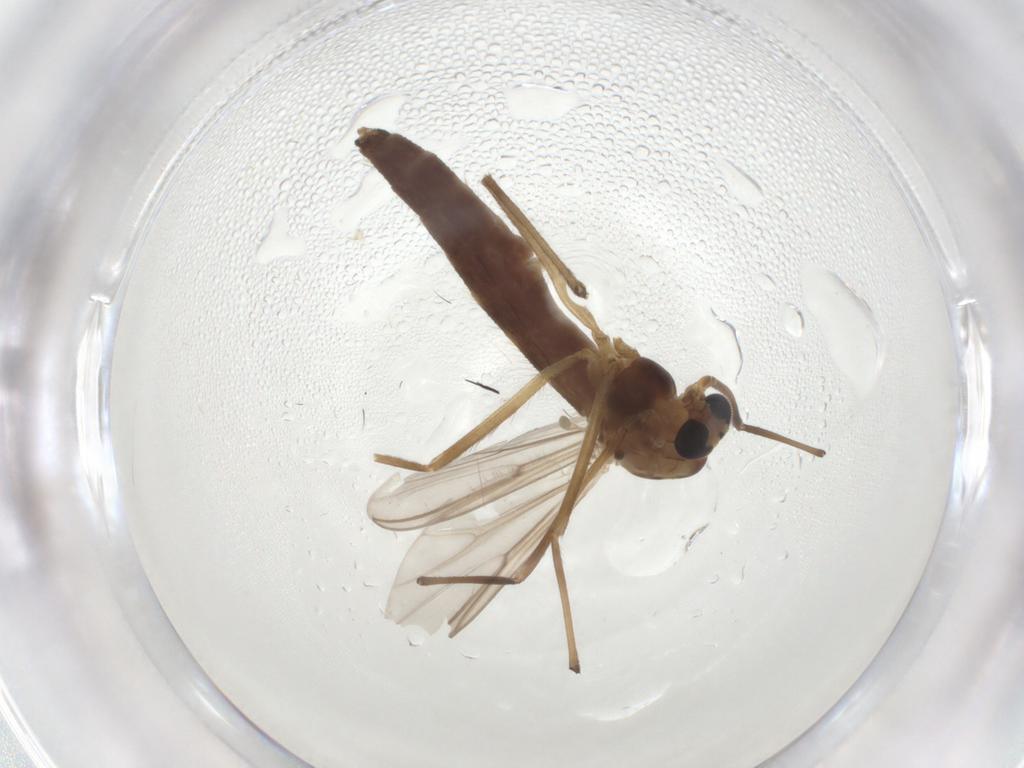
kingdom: Animalia
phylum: Arthropoda
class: Insecta
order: Diptera
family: Chironomidae
